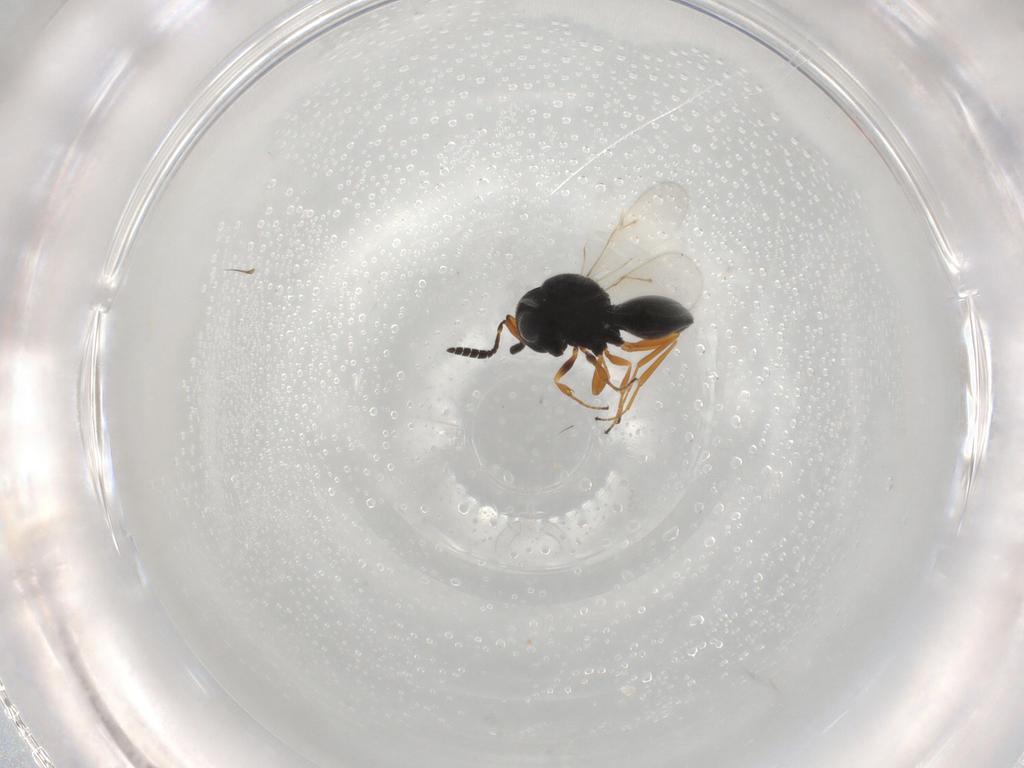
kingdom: Animalia
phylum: Arthropoda
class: Insecta
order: Hymenoptera
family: Scelionidae
